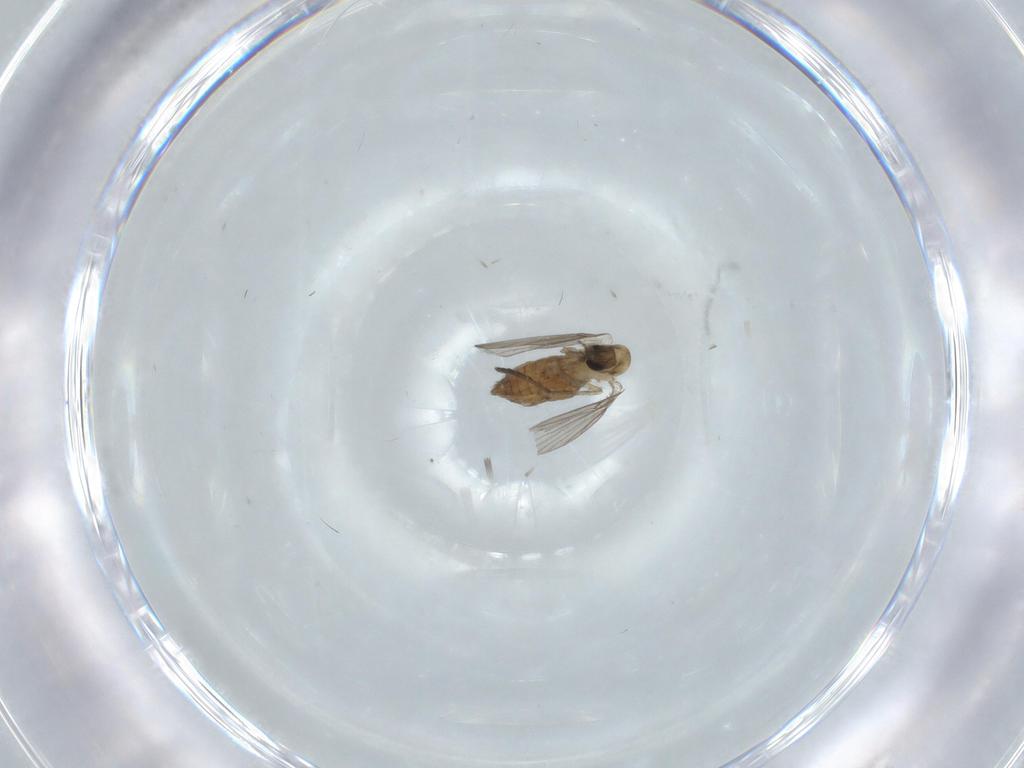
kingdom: Animalia
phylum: Arthropoda
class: Insecta
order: Diptera
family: Psychodidae
